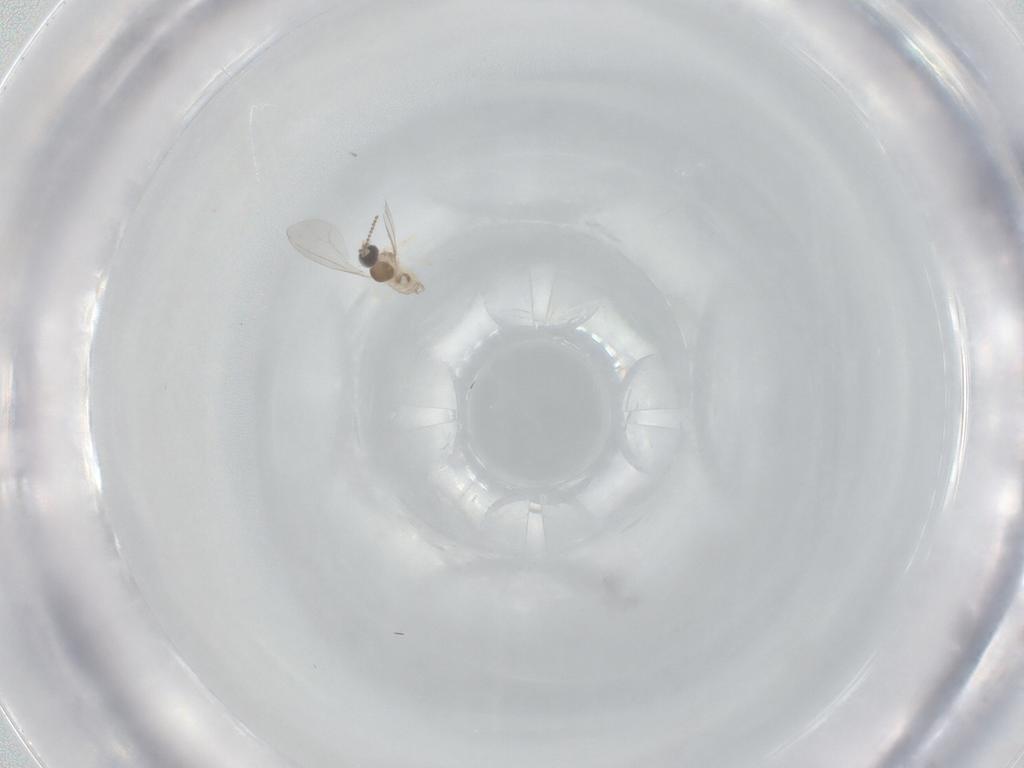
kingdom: Animalia
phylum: Arthropoda
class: Insecta
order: Diptera
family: Cecidomyiidae
